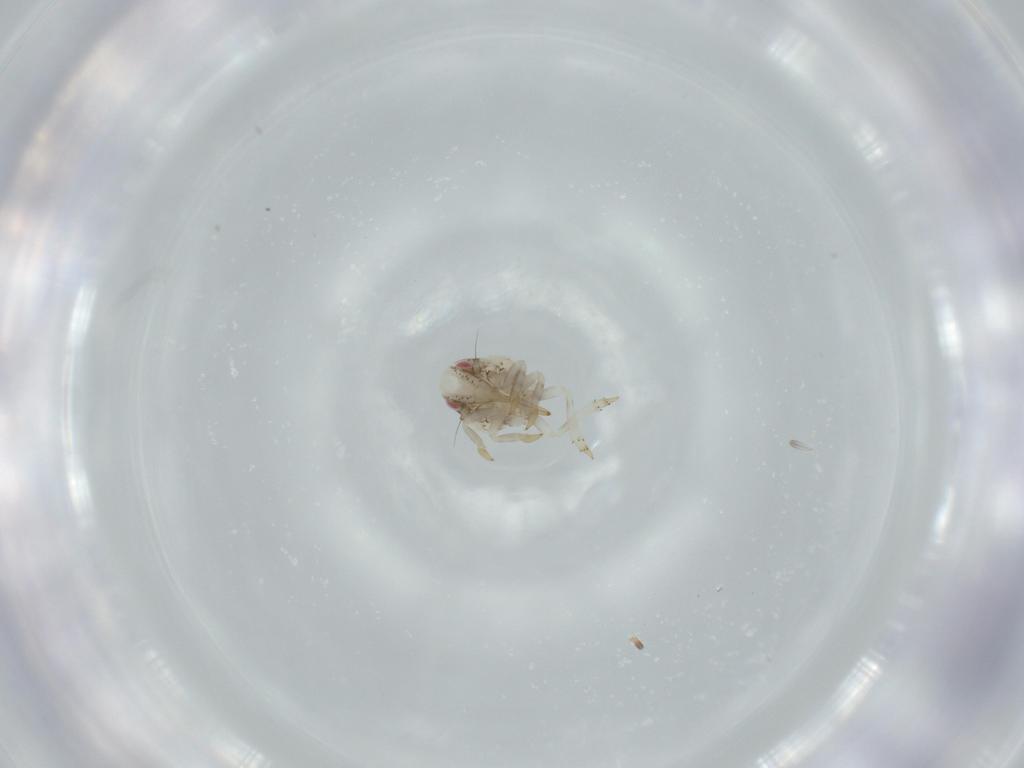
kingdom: Animalia
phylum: Arthropoda
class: Insecta
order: Hemiptera
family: Acanaloniidae
